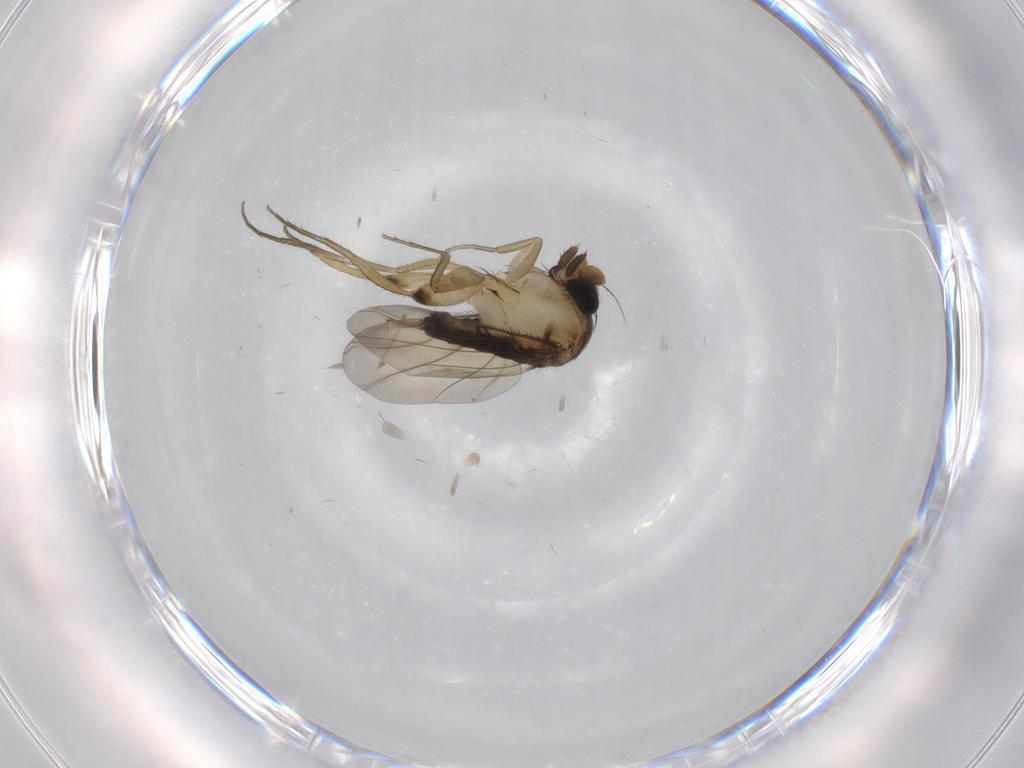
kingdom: Animalia
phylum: Arthropoda
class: Insecta
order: Diptera
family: Phoridae
